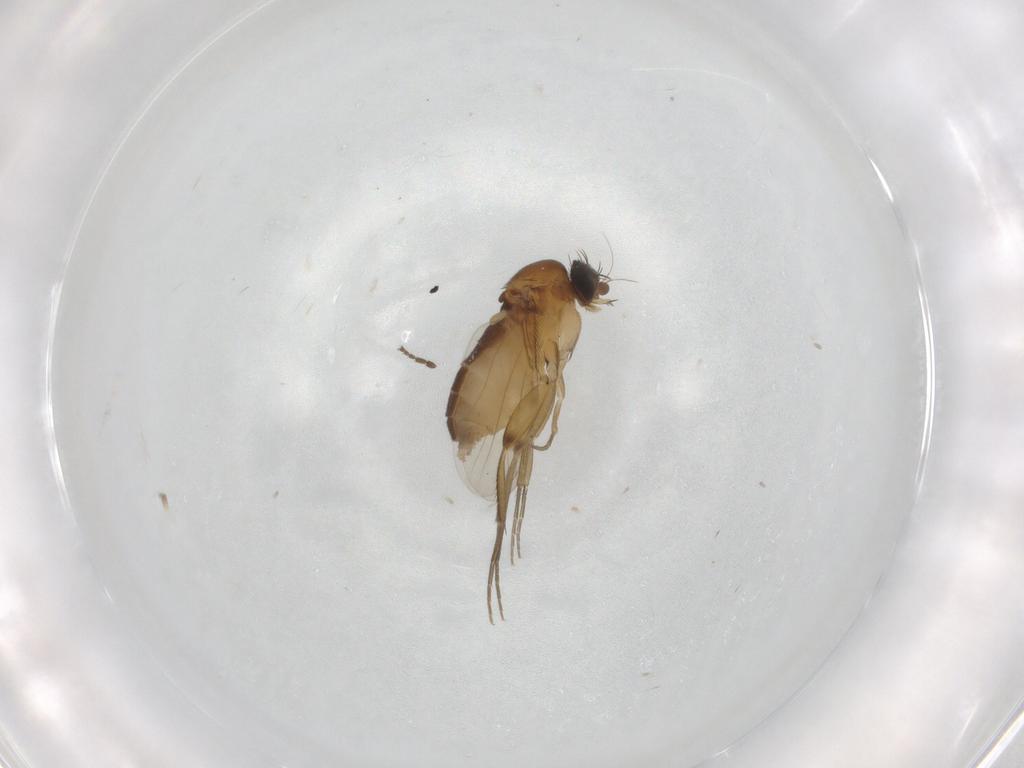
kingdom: Animalia
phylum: Arthropoda
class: Insecta
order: Diptera
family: Phoridae
